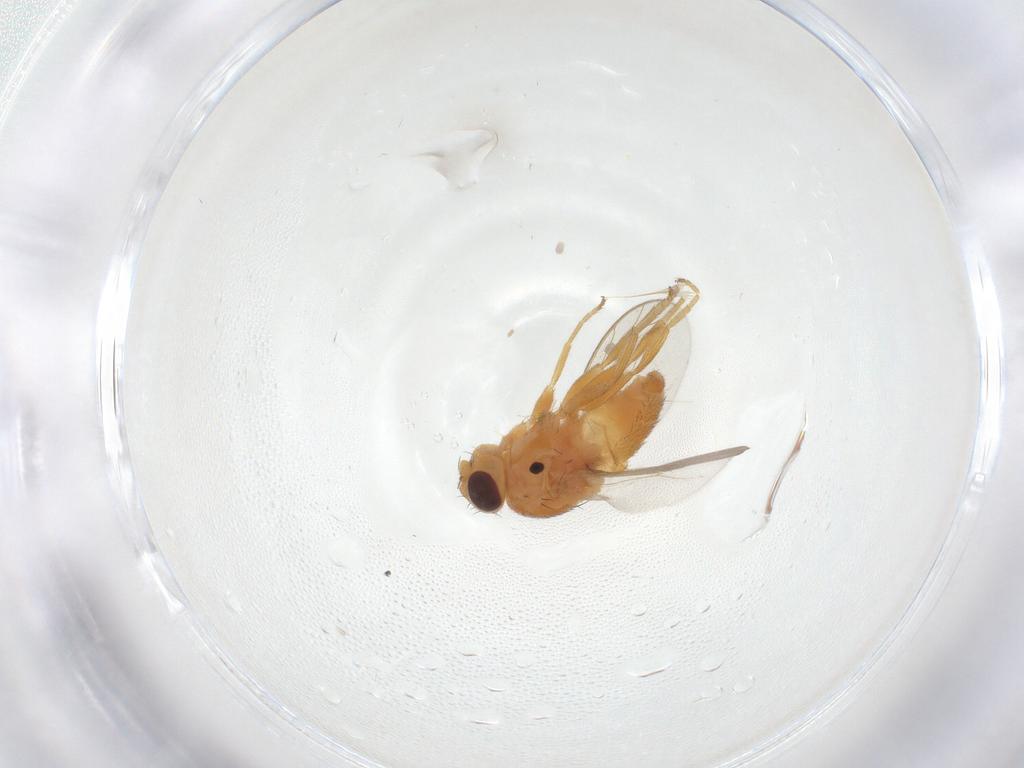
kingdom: Animalia
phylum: Arthropoda
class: Insecta
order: Diptera
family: Chloropidae
